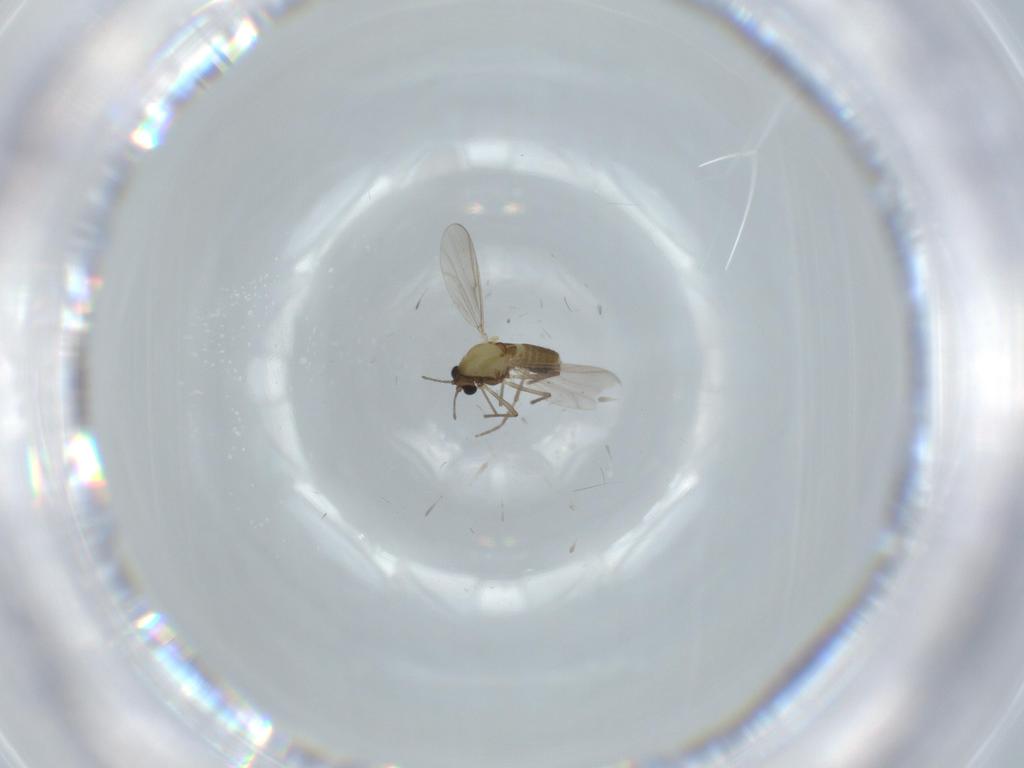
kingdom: Animalia
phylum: Arthropoda
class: Insecta
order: Diptera
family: Chironomidae
